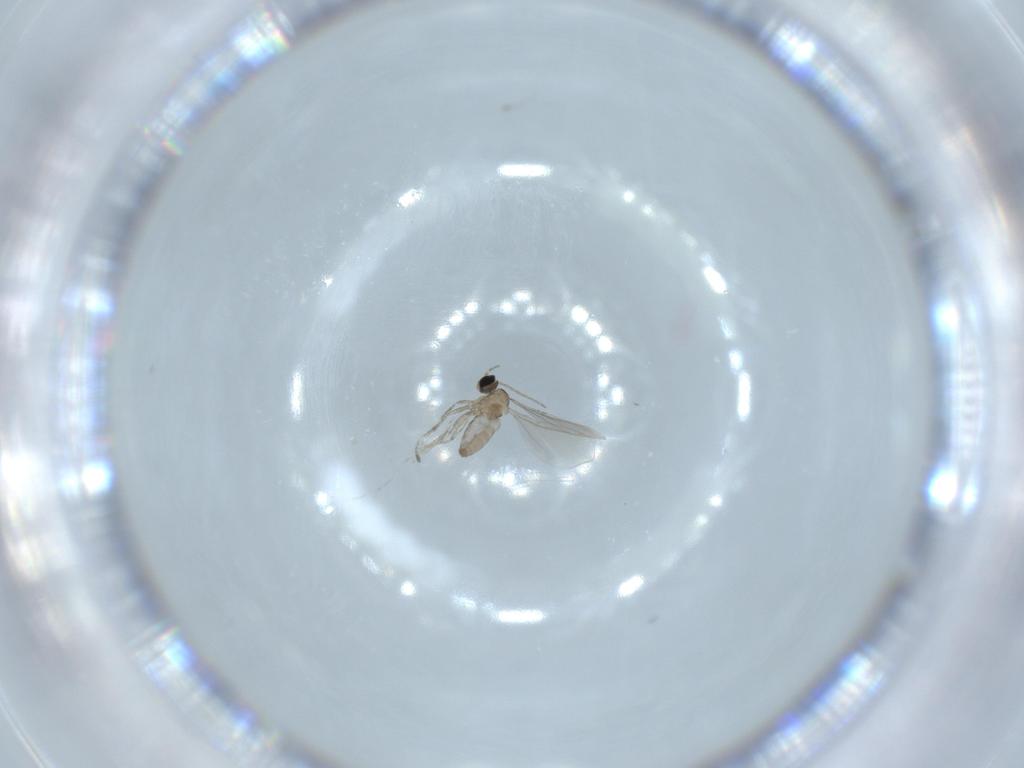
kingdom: Animalia
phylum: Arthropoda
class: Insecta
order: Diptera
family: Cecidomyiidae
